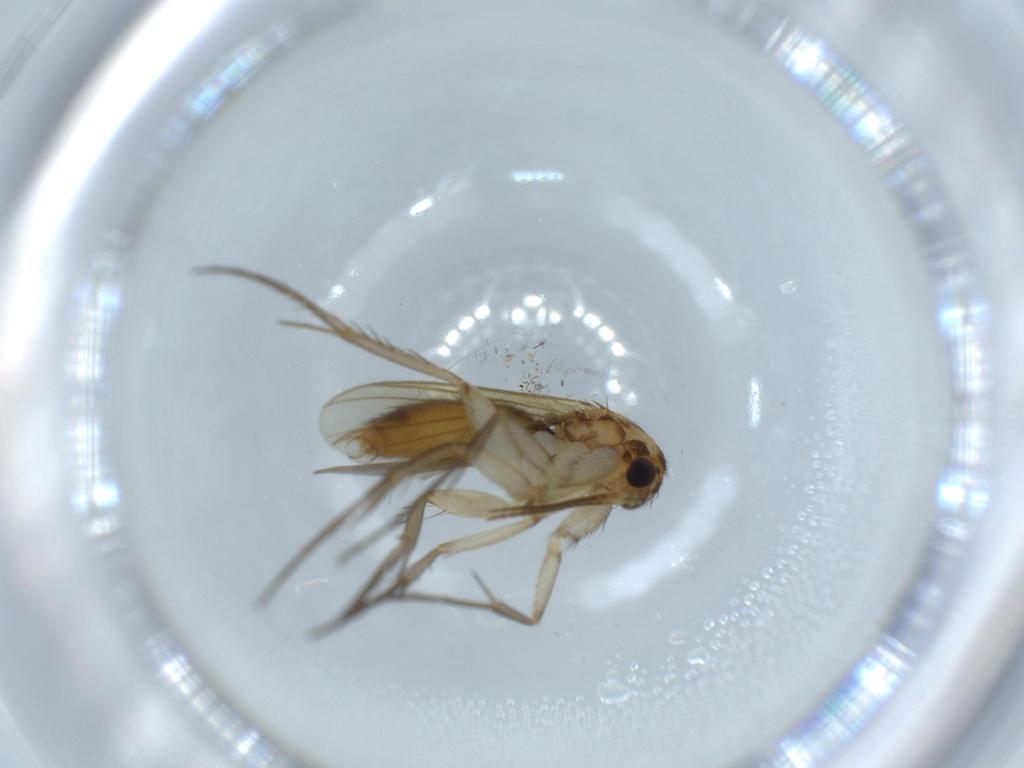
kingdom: Animalia
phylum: Arthropoda
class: Insecta
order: Diptera
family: Mycetophilidae
